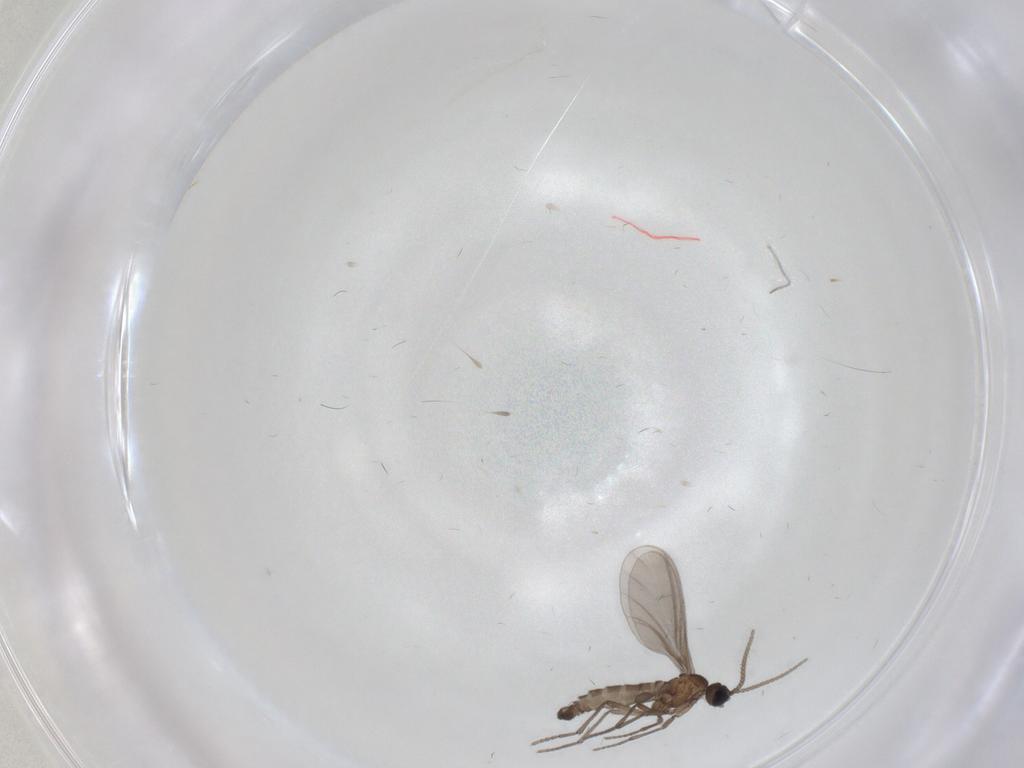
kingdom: Animalia
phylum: Arthropoda
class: Insecta
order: Diptera
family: Sciaridae
